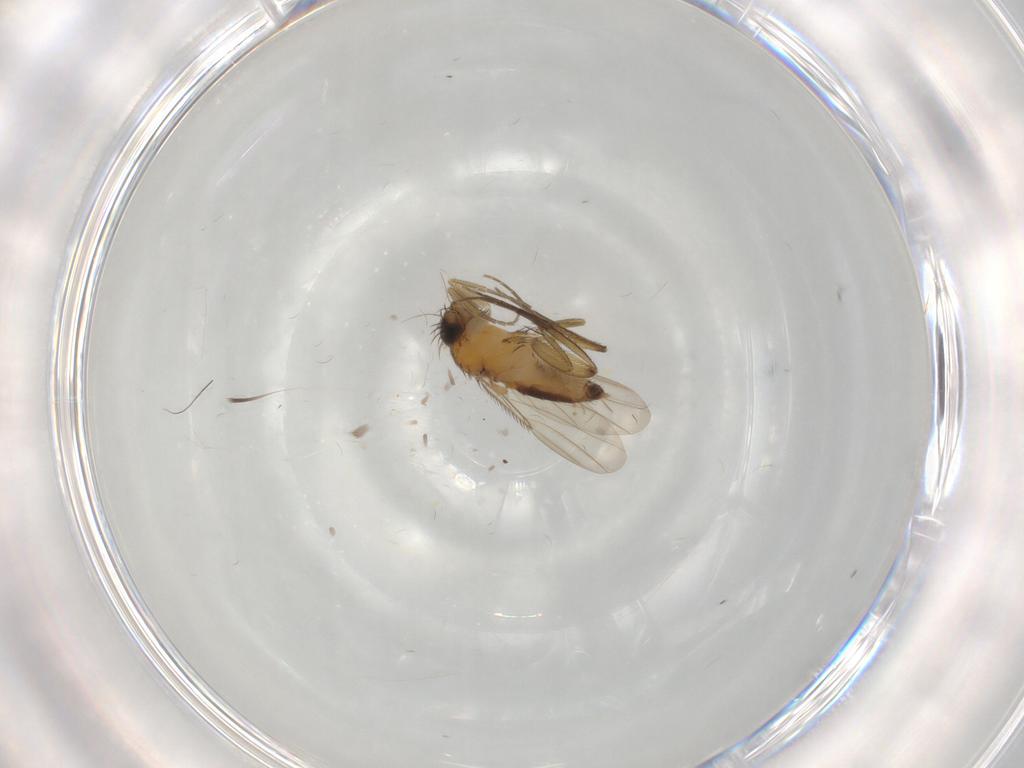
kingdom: Animalia
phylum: Arthropoda
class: Insecta
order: Diptera
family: Phoridae
